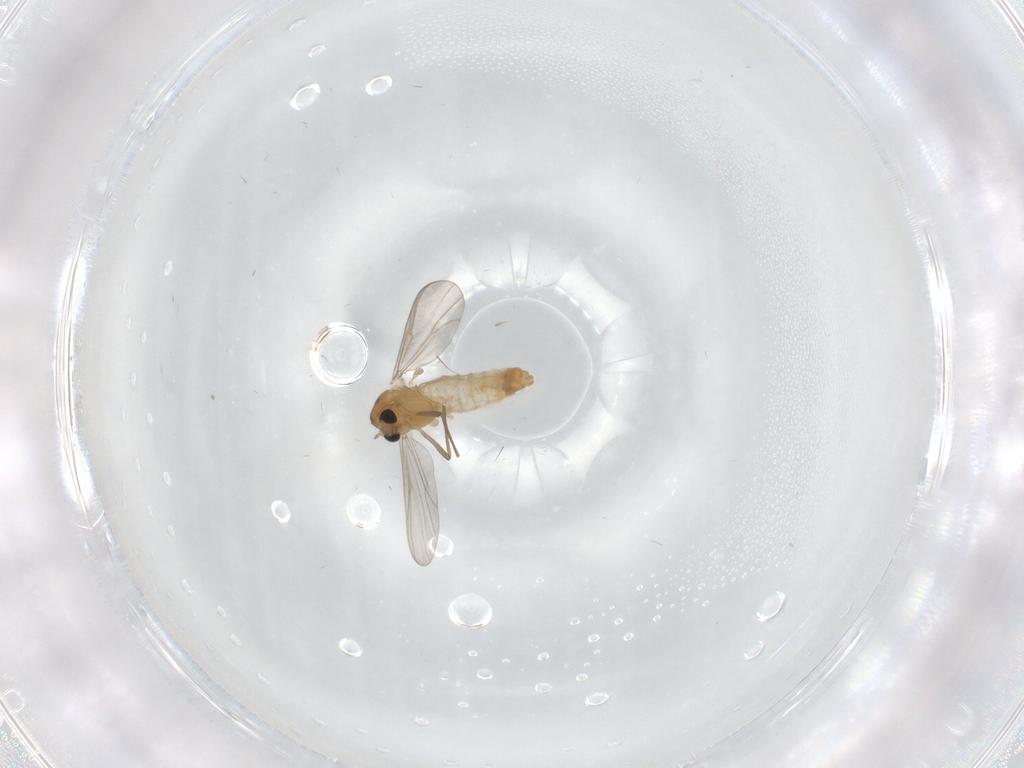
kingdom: Animalia
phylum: Arthropoda
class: Insecta
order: Diptera
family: Chironomidae
